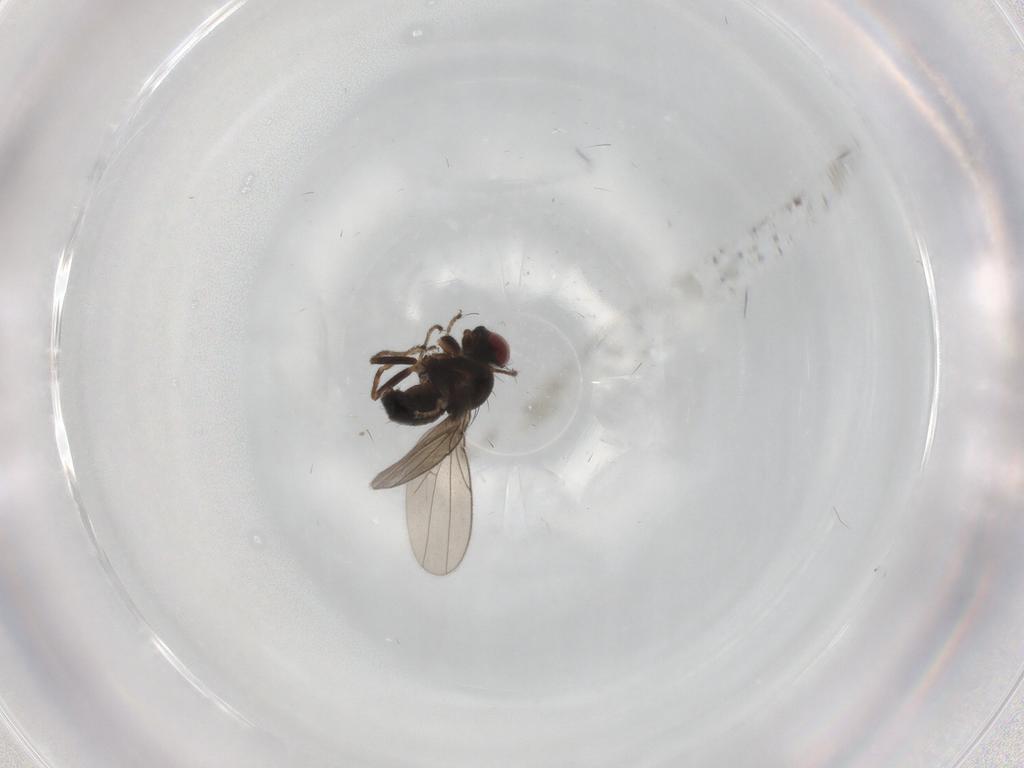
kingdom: Animalia
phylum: Arthropoda
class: Insecta
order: Diptera
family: Ephydridae
